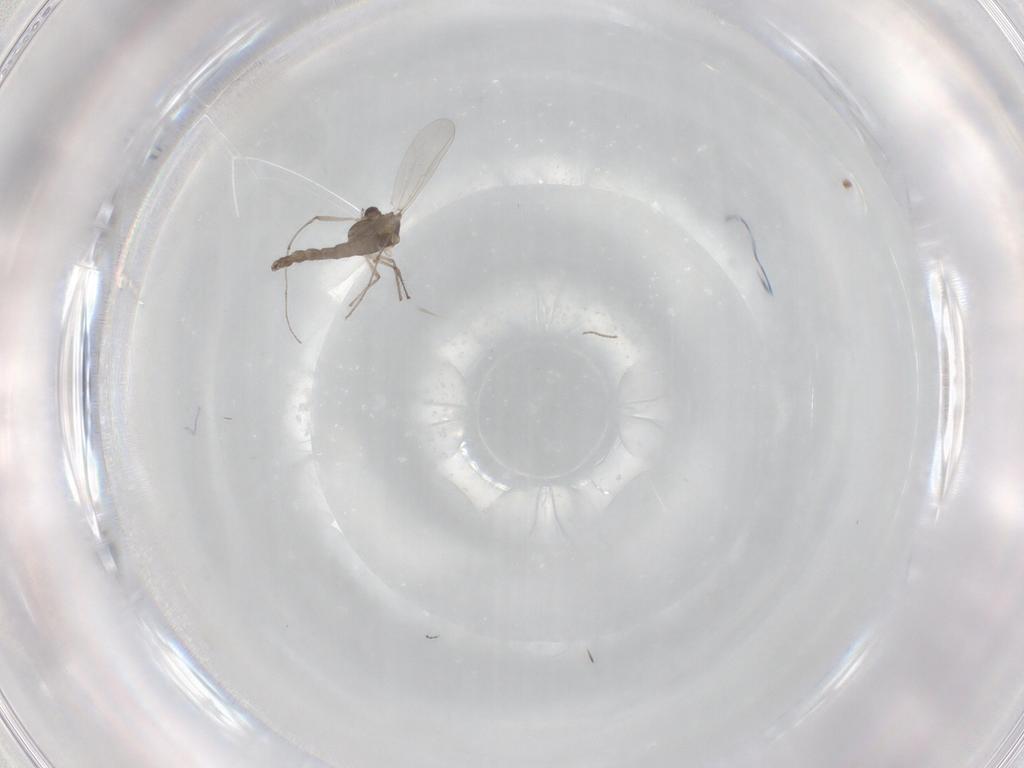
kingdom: Animalia
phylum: Arthropoda
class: Insecta
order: Diptera
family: Chironomidae
